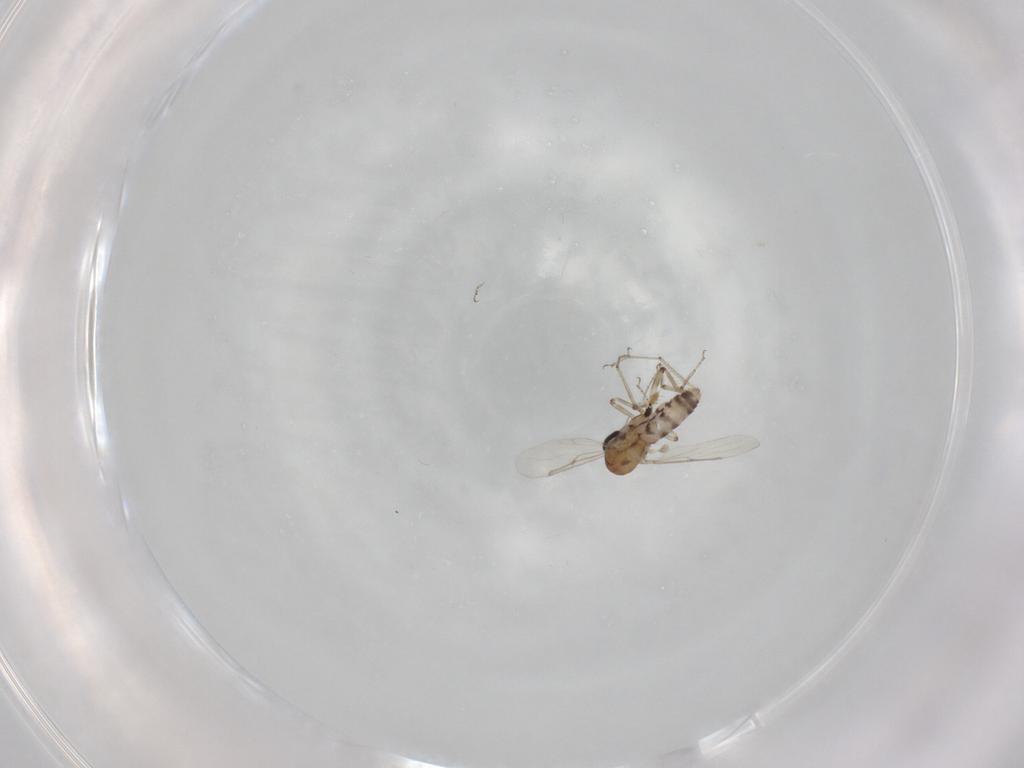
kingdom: Animalia
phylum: Arthropoda
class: Insecta
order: Diptera
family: Ceratopogonidae
